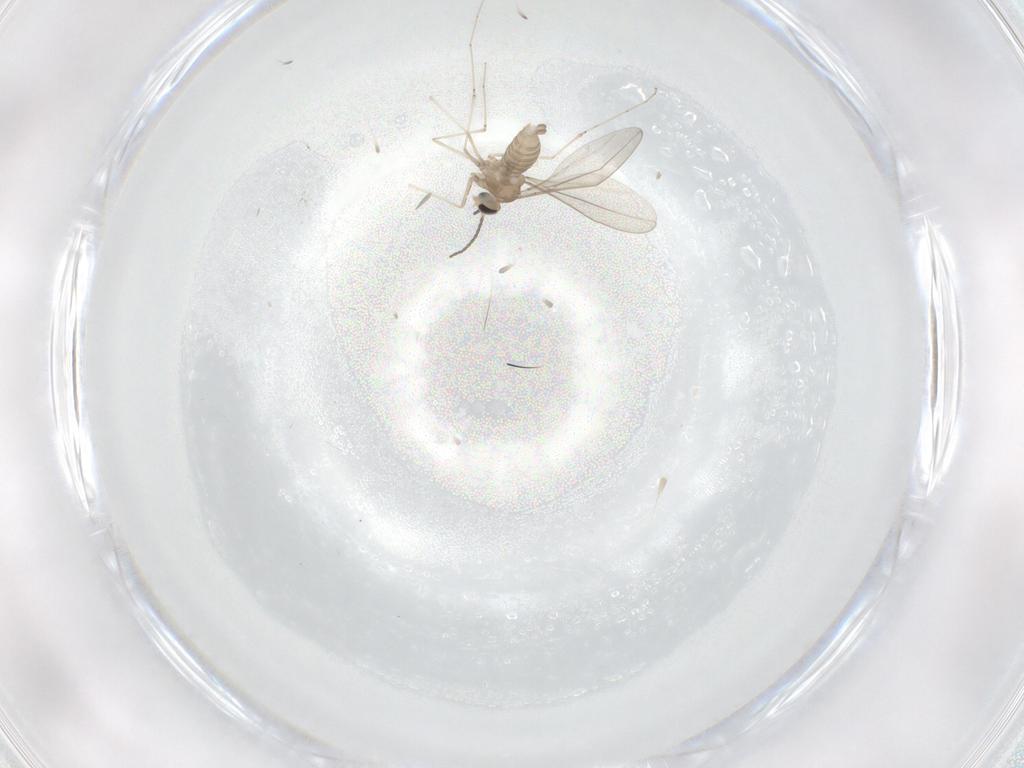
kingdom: Animalia
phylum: Arthropoda
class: Insecta
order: Diptera
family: Cecidomyiidae
